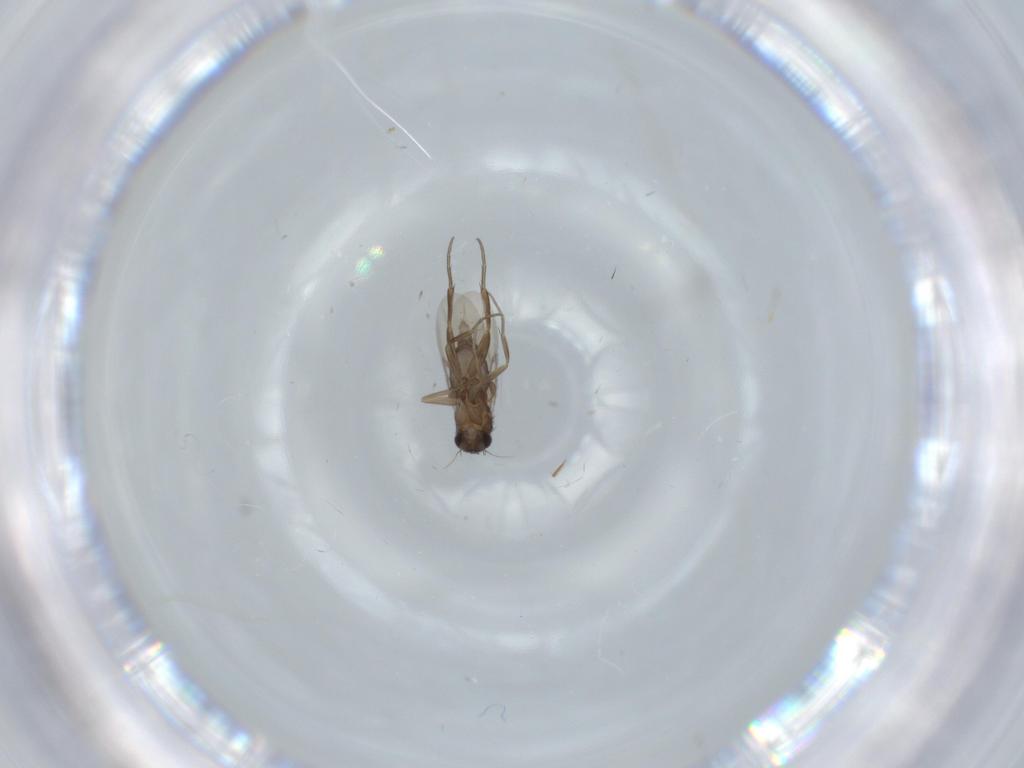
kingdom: Animalia
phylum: Arthropoda
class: Insecta
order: Diptera
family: Phoridae
